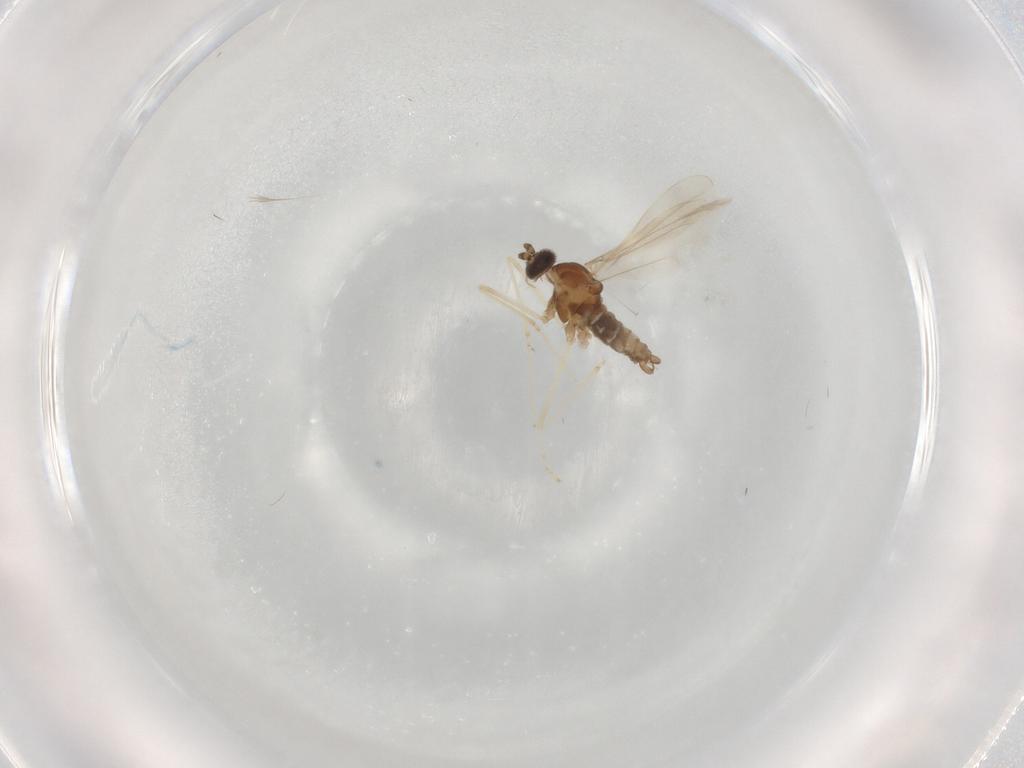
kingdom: Animalia
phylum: Arthropoda
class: Insecta
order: Diptera
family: Cecidomyiidae
